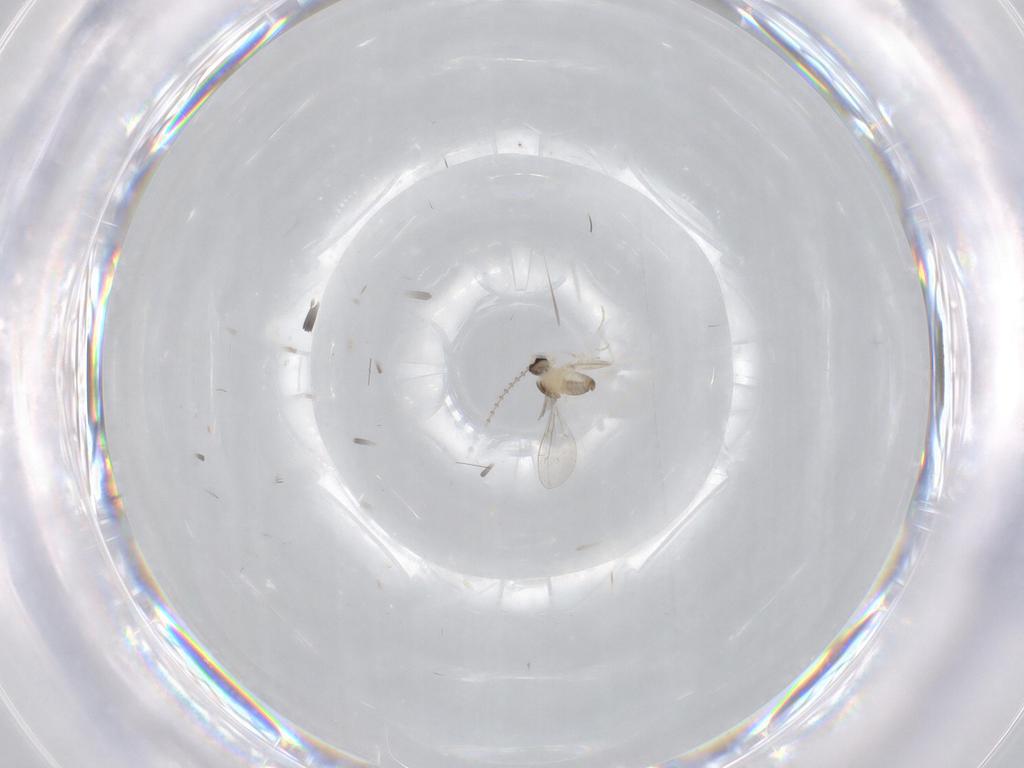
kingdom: Animalia
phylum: Arthropoda
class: Insecta
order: Diptera
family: Cecidomyiidae
